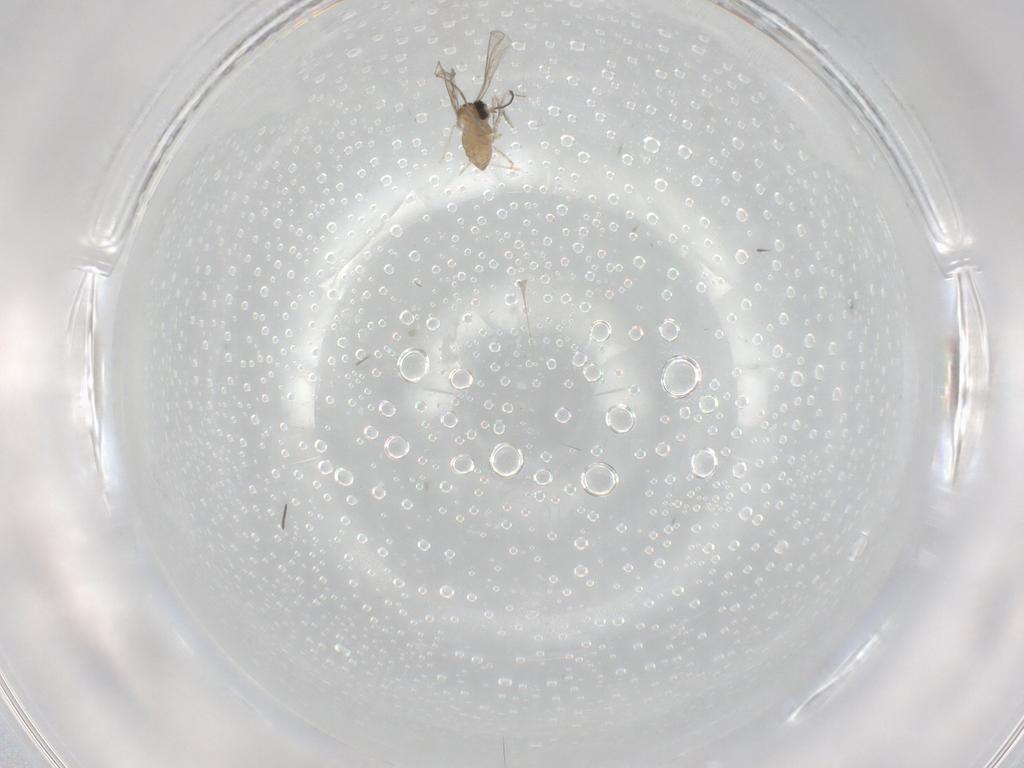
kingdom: Animalia
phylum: Arthropoda
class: Insecta
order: Diptera
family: Cecidomyiidae
